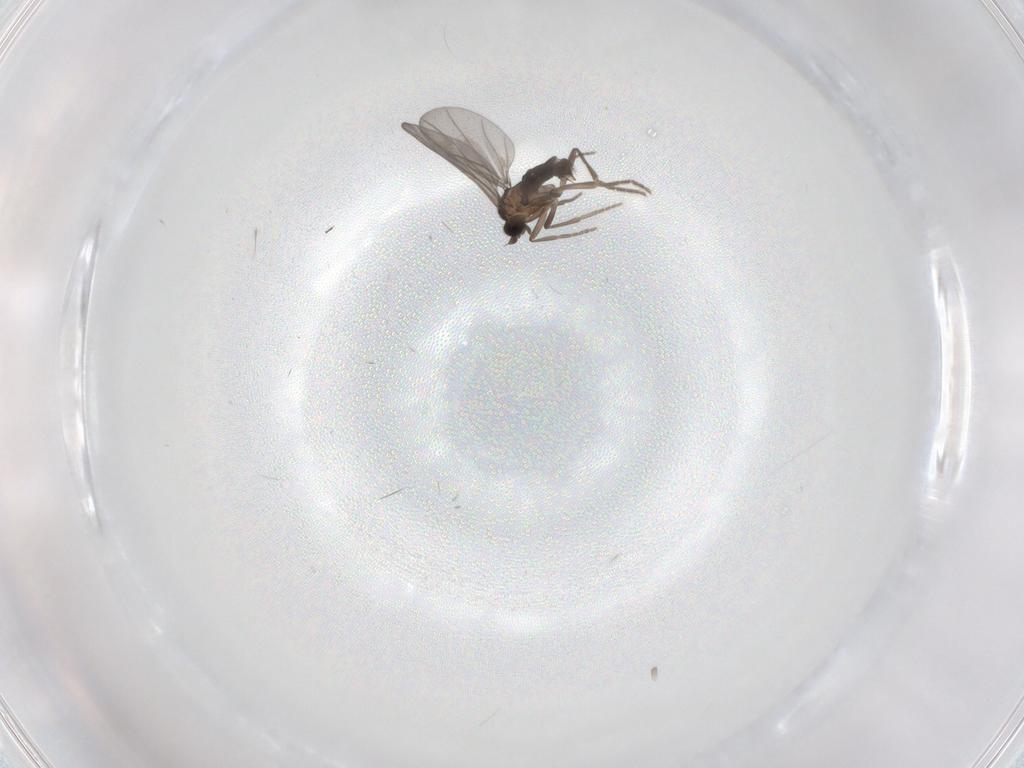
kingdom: Animalia
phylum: Arthropoda
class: Insecta
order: Diptera
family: Phoridae
